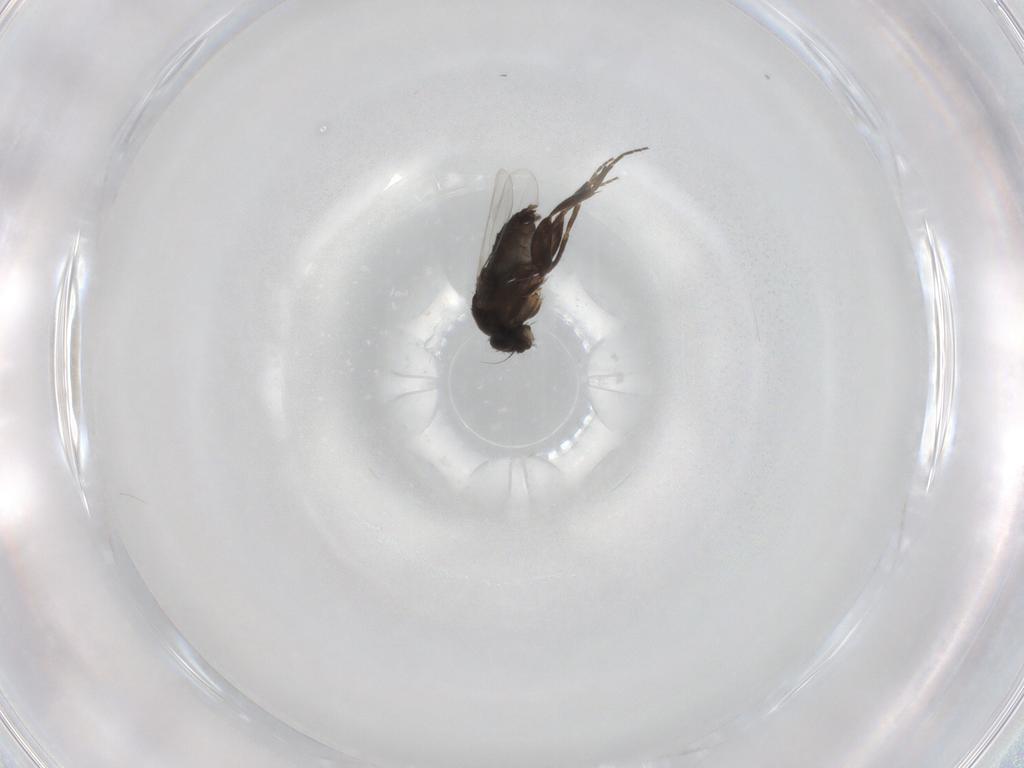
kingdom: Animalia
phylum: Arthropoda
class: Insecta
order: Diptera
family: Phoridae
